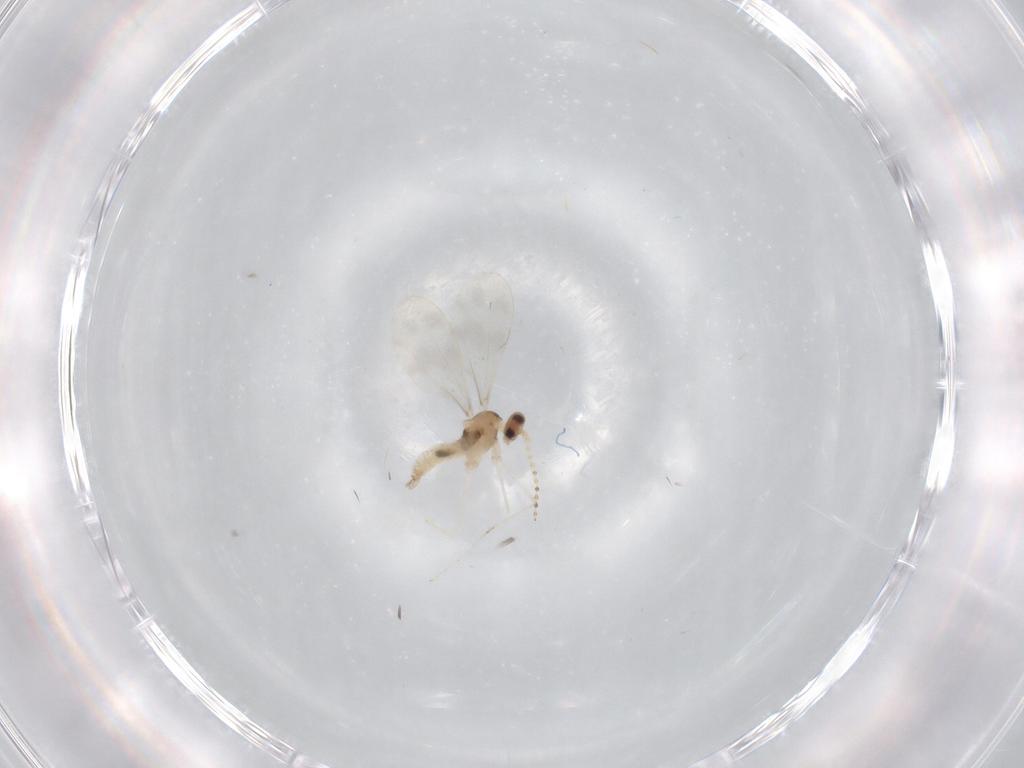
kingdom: Animalia
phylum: Arthropoda
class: Insecta
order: Diptera
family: Cecidomyiidae
